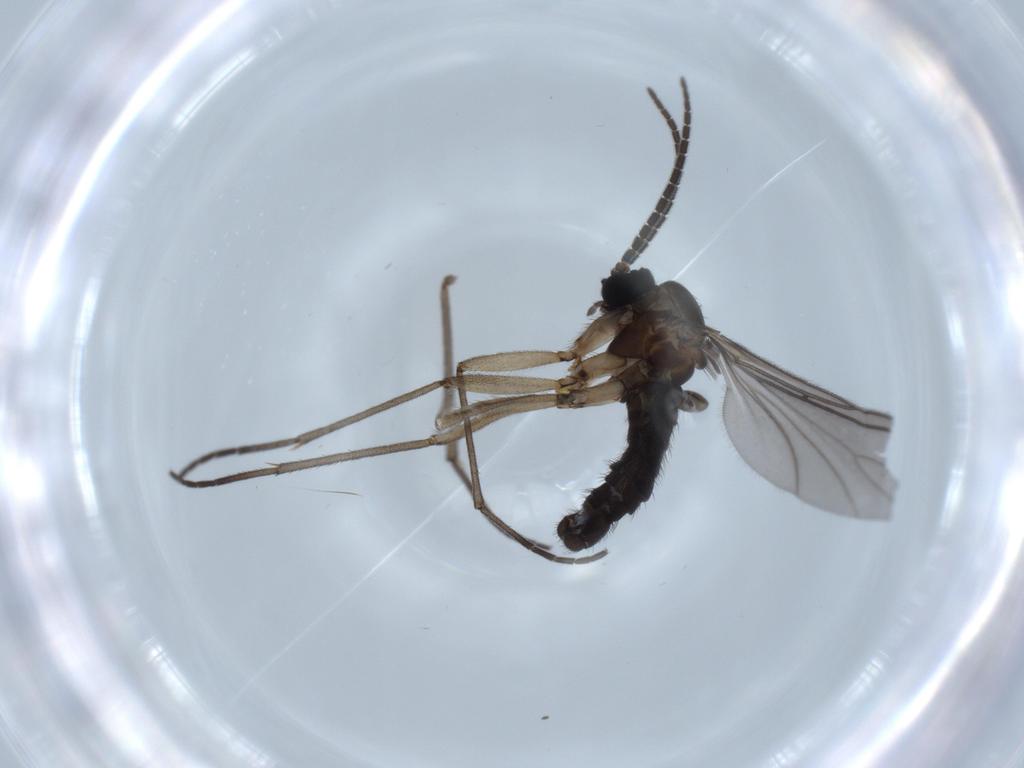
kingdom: Animalia
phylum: Arthropoda
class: Insecta
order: Diptera
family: Sciaridae
